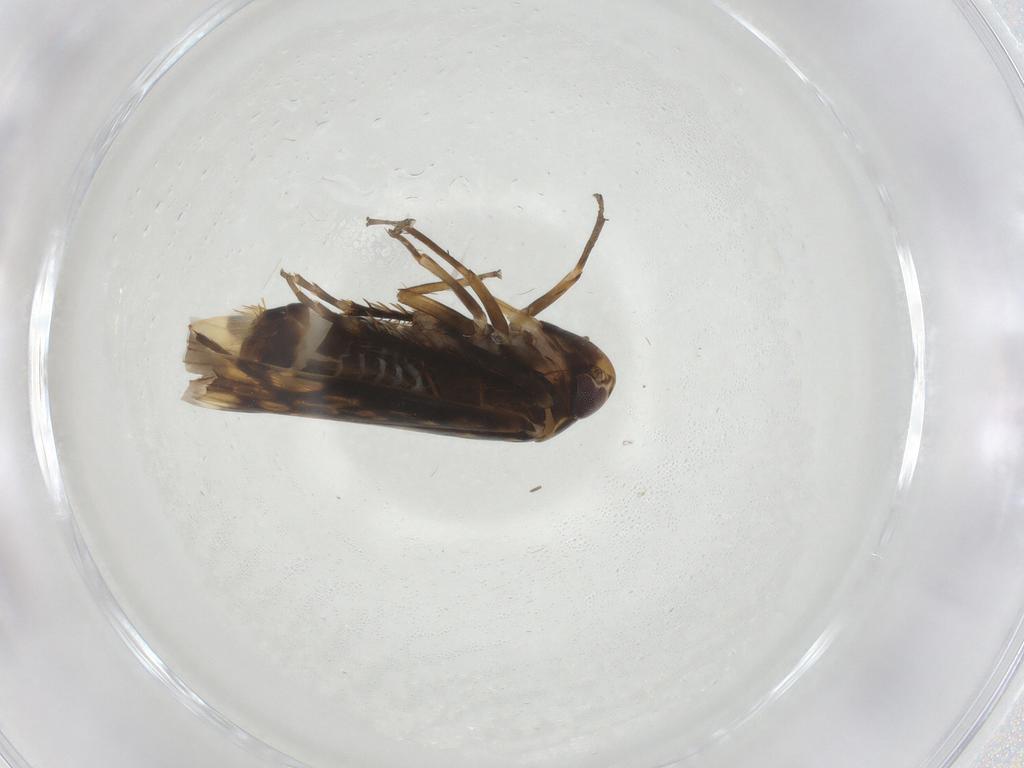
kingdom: Animalia
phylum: Arthropoda
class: Insecta
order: Hemiptera
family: Cicadellidae
